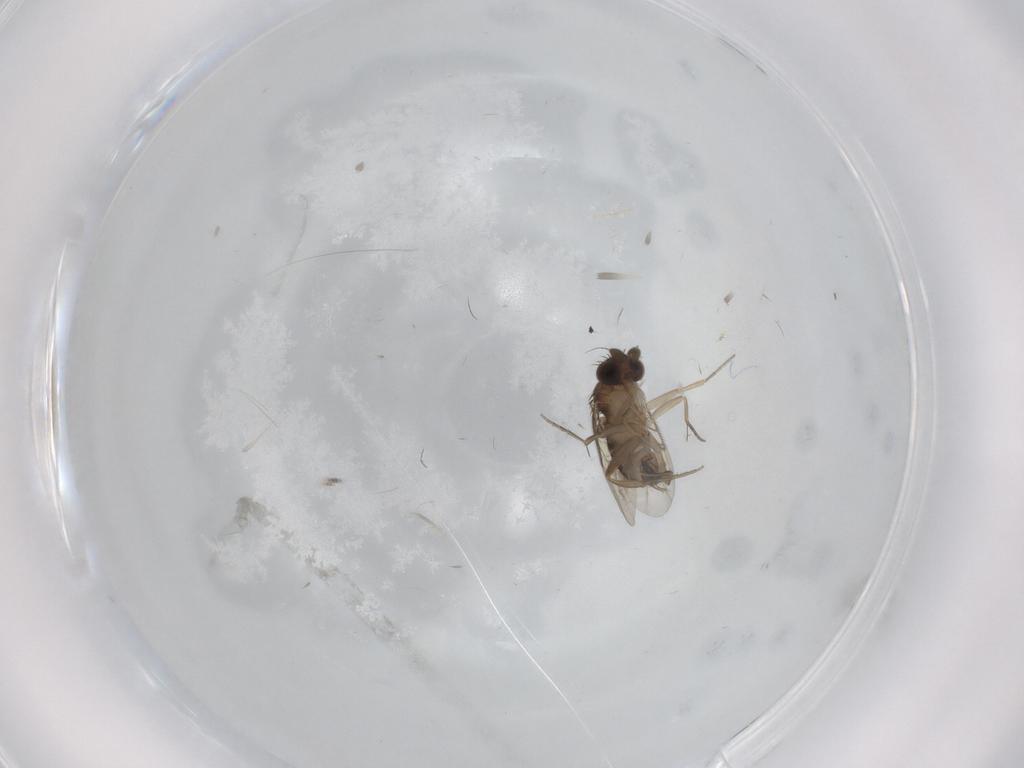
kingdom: Animalia
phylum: Arthropoda
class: Insecta
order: Diptera
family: Phoridae
